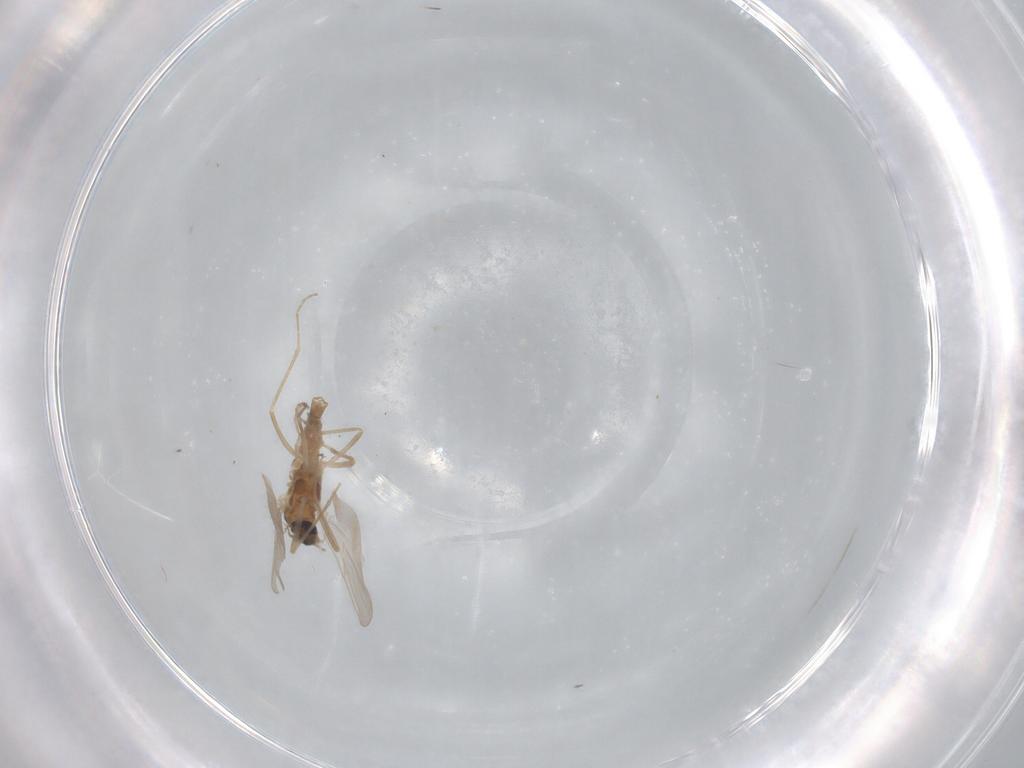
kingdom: Animalia
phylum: Arthropoda
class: Insecta
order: Diptera
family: Cecidomyiidae
